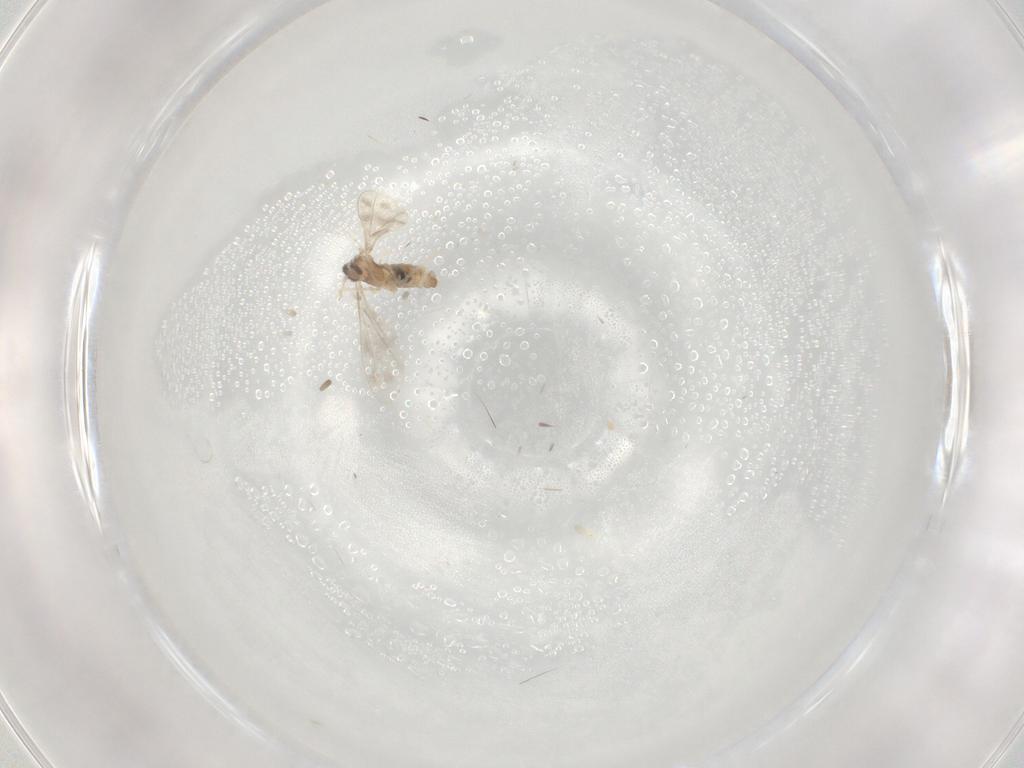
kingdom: Animalia
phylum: Arthropoda
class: Insecta
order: Diptera
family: Cecidomyiidae
